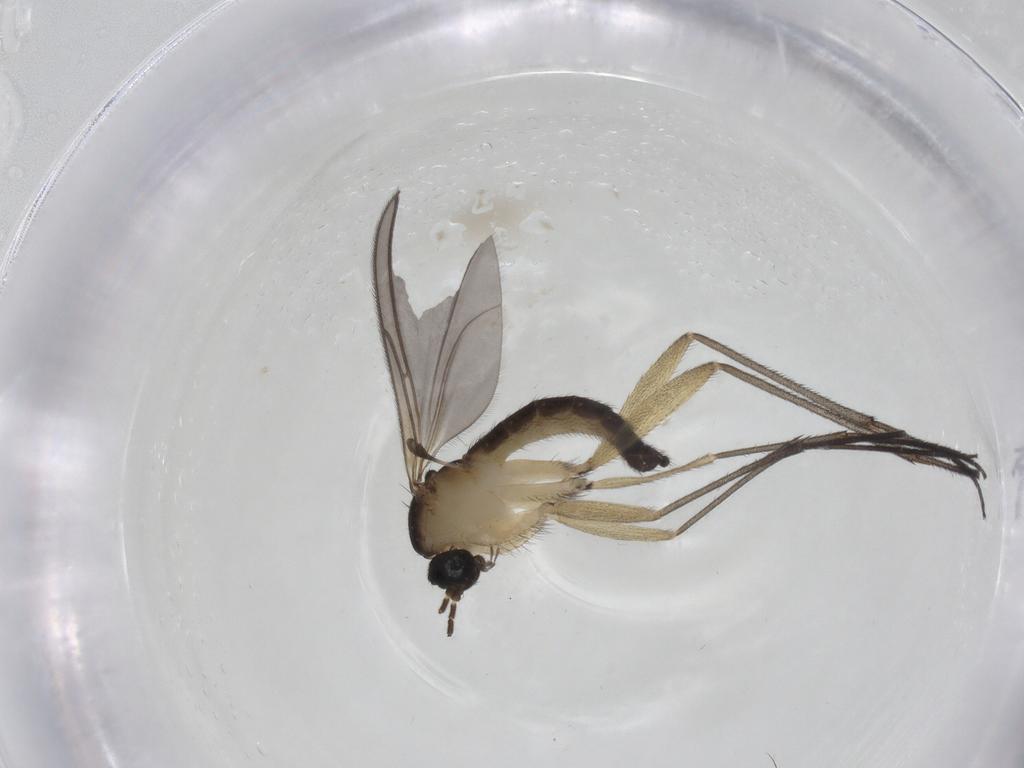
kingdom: Animalia
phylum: Arthropoda
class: Insecta
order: Diptera
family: Sciaridae
